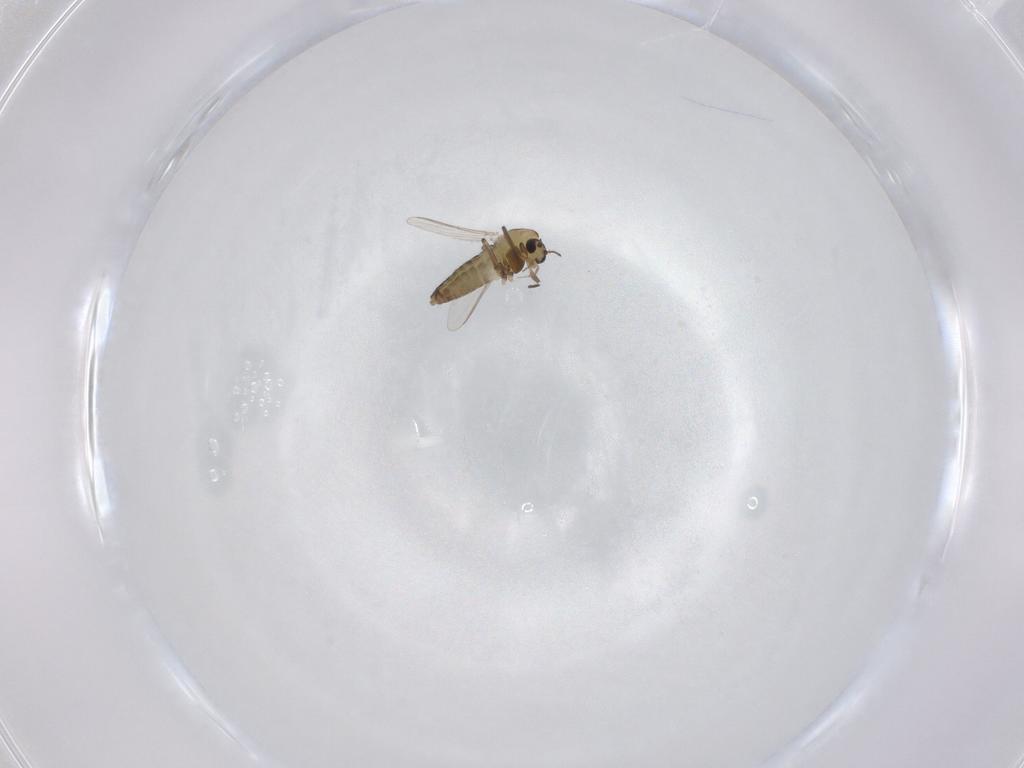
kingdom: Animalia
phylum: Arthropoda
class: Insecta
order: Diptera
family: Chironomidae
